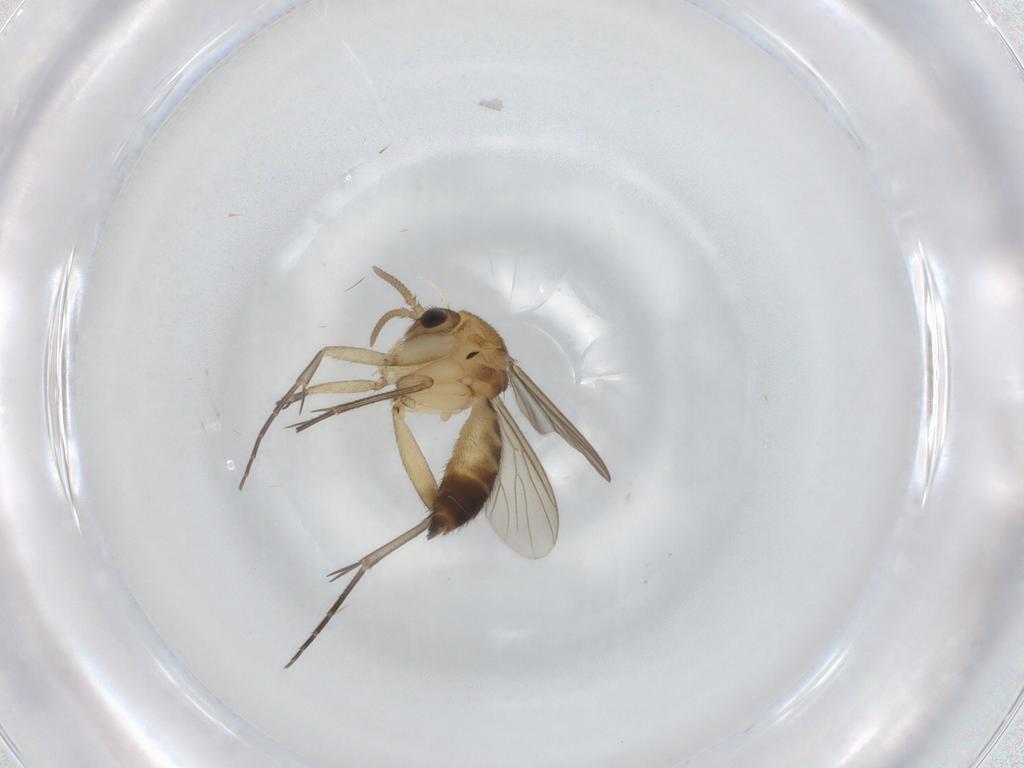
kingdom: Animalia
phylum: Arthropoda
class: Insecta
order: Diptera
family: Mycetophilidae
